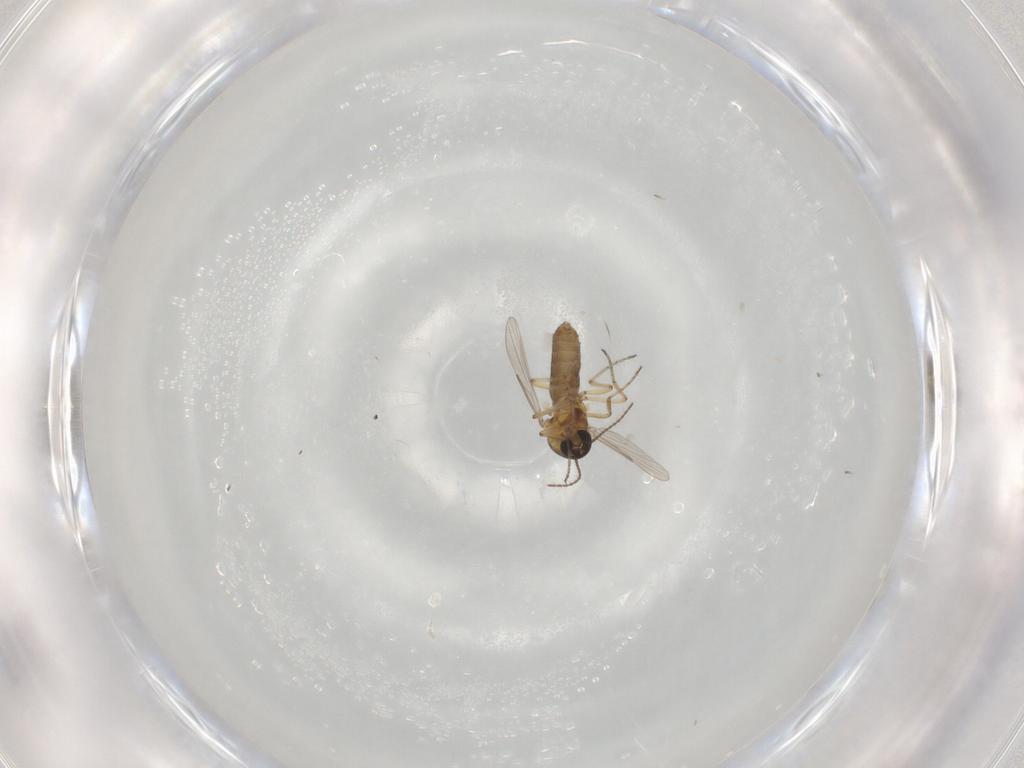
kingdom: Animalia
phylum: Arthropoda
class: Insecta
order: Diptera
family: Ceratopogonidae
